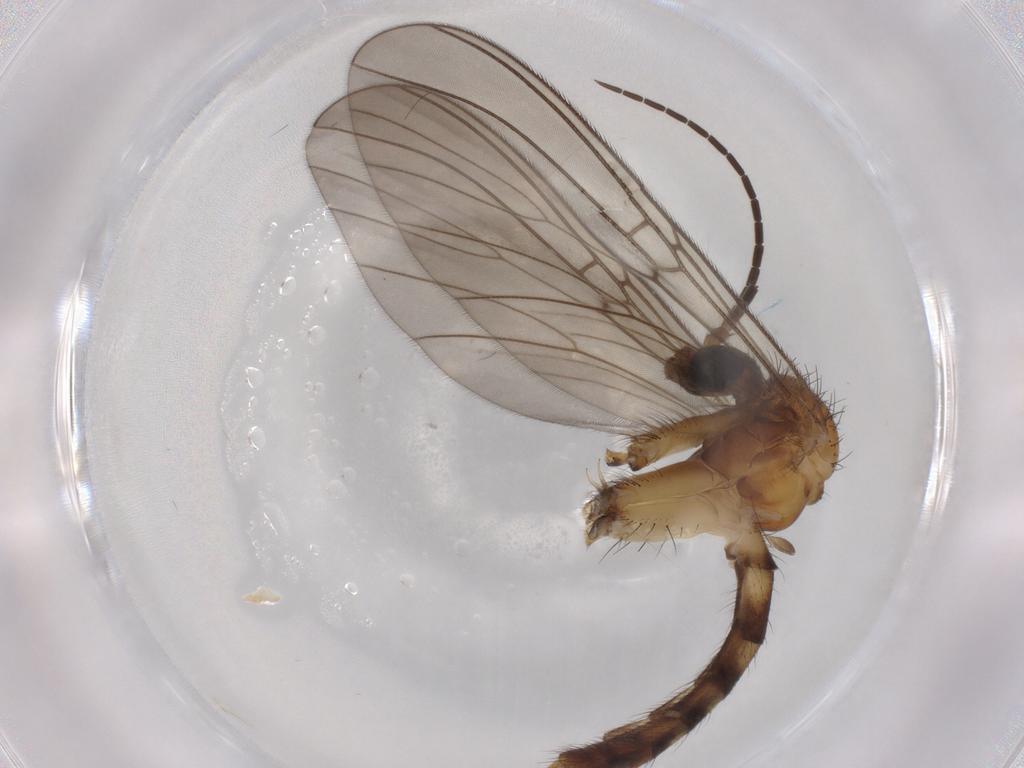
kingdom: Animalia
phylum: Arthropoda
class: Insecta
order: Diptera
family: Mycetophilidae
